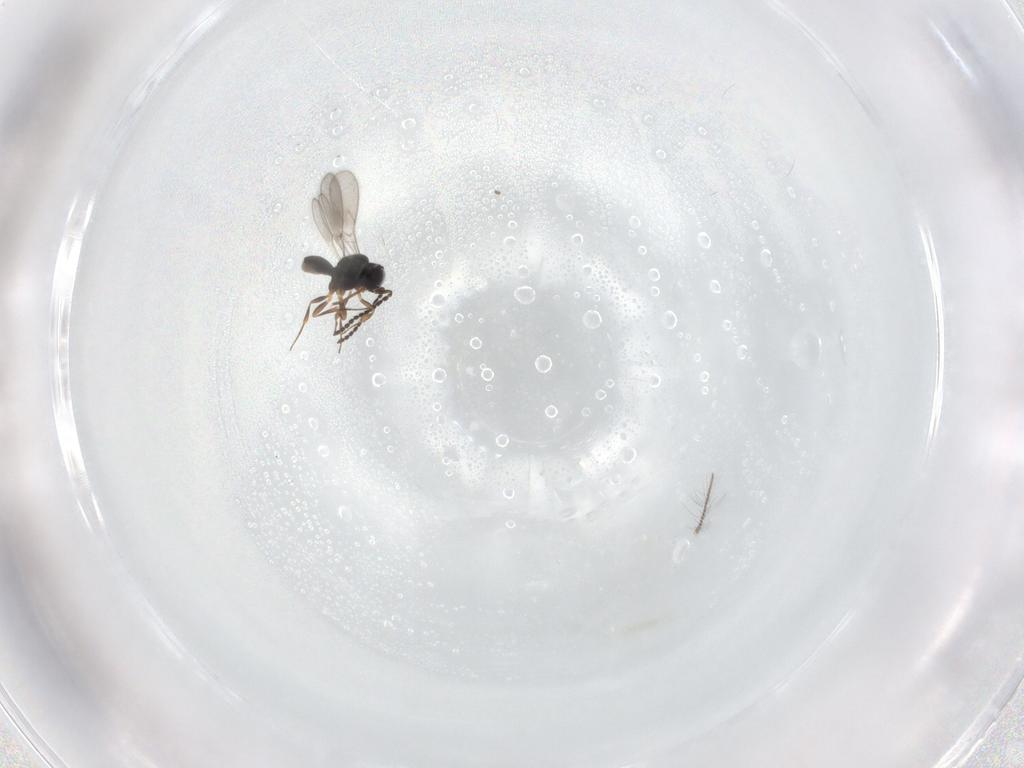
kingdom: Animalia
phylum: Arthropoda
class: Insecta
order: Hymenoptera
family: Scelionidae
